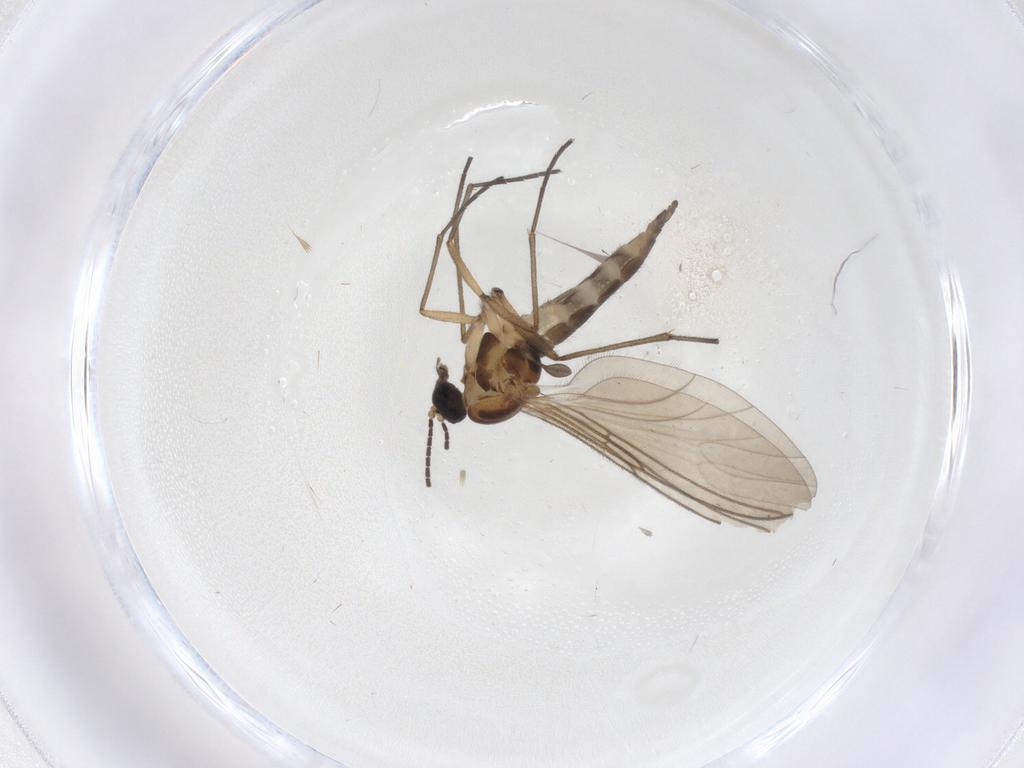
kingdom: Animalia
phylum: Arthropoda
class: Insecta
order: Diptera
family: Sciaridae
